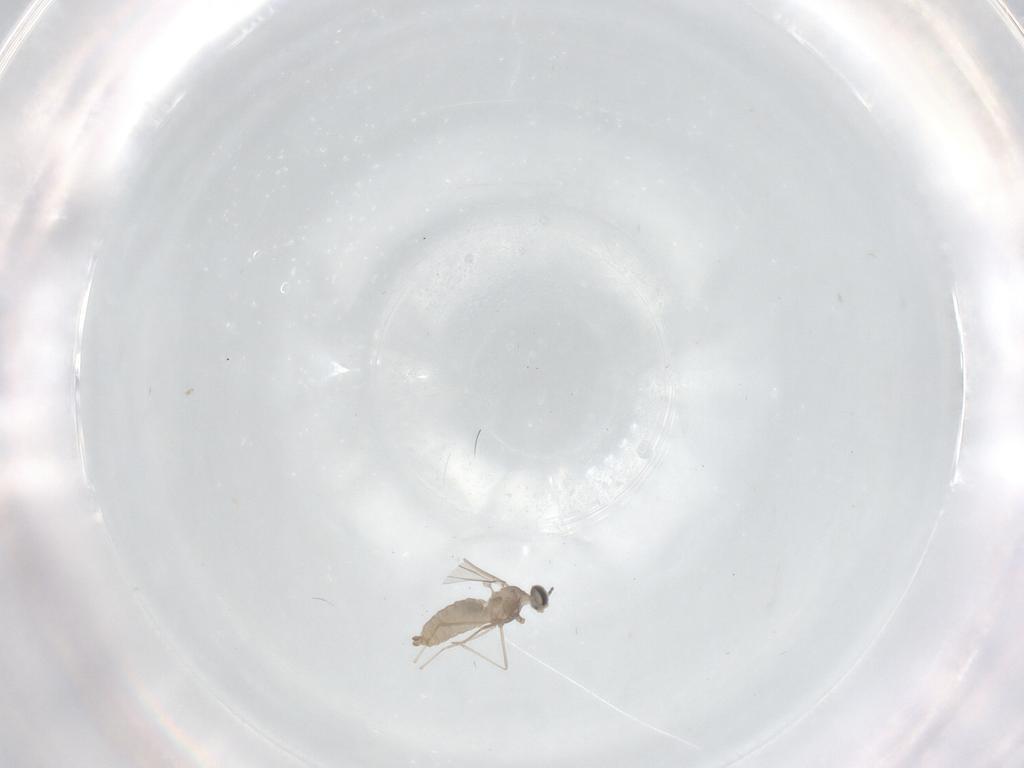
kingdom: Animalia
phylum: Arthropoda
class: Insecta
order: Diptera
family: Cecidomyiidae
